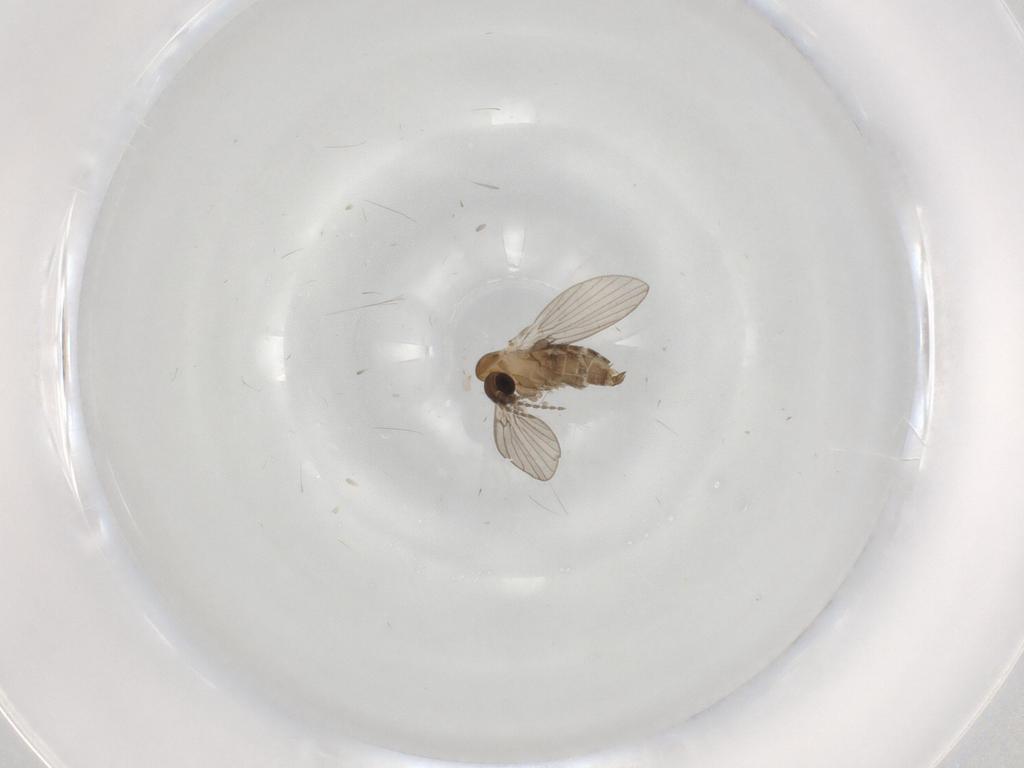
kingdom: Animalia
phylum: Arthropoda
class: Insecta
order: Diptera
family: Psychodidae
